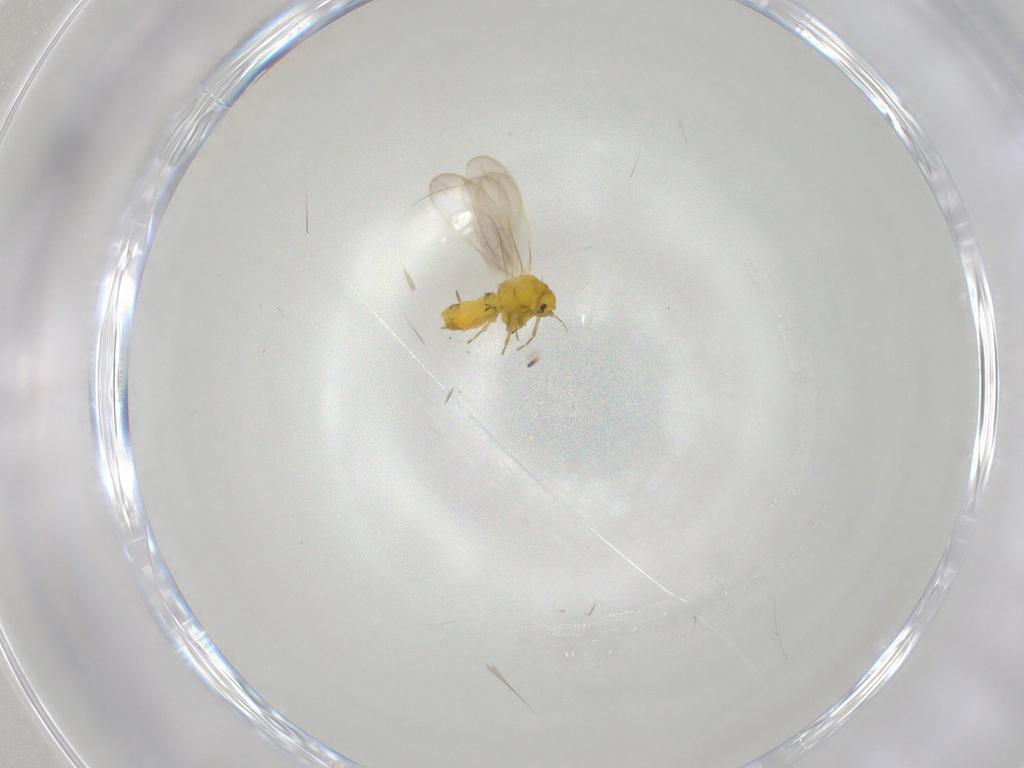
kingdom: Animalia
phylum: Arthropoda
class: Insecta
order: Hemiptera
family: Aleyrodidae
